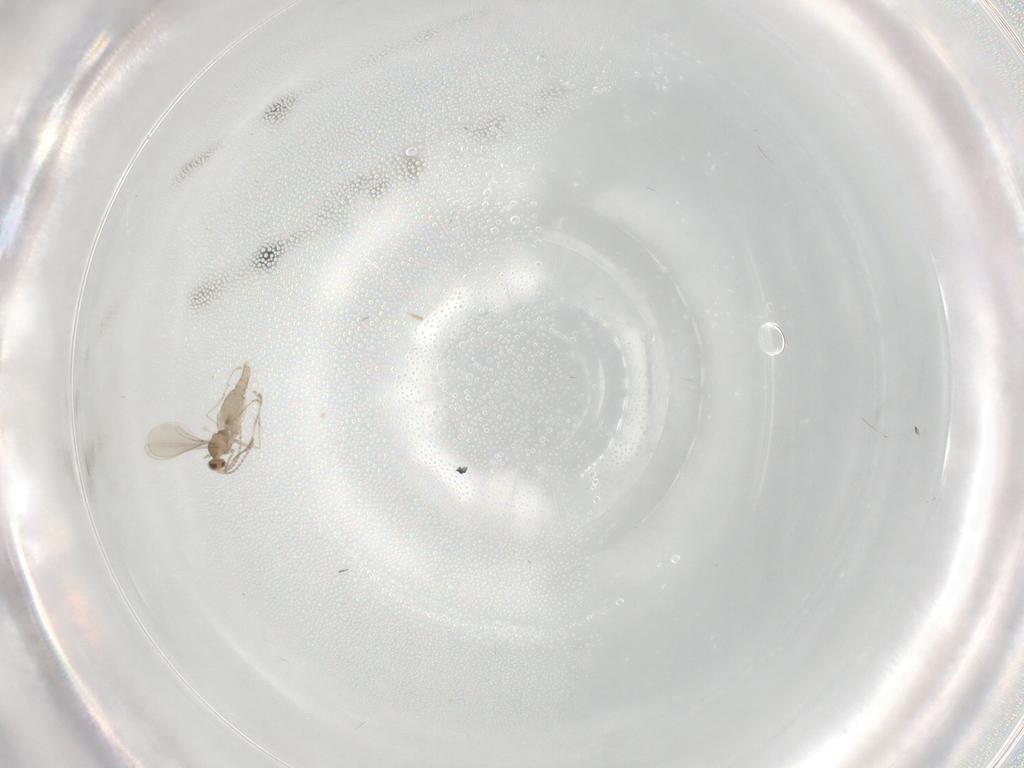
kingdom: Animalia
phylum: Arthropoda
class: Insecta
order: Diptera
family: Cecidomyiidae
